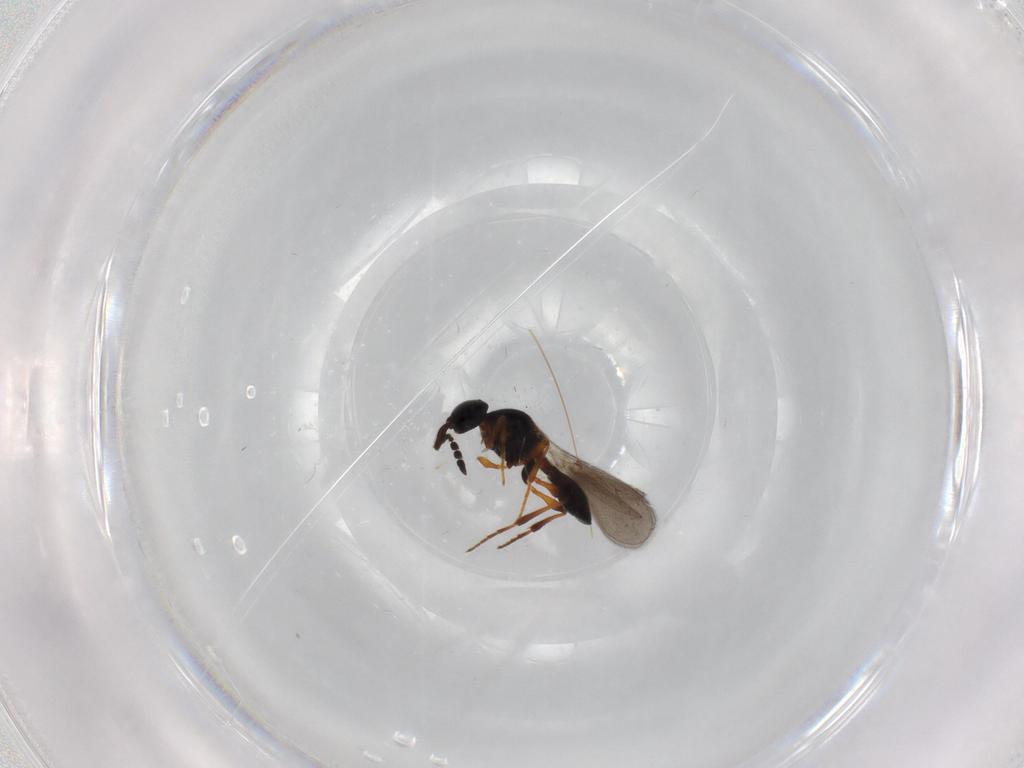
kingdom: Animalia
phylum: Arthropoda
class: Insecta
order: Hymenoptera
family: Platygastridae
